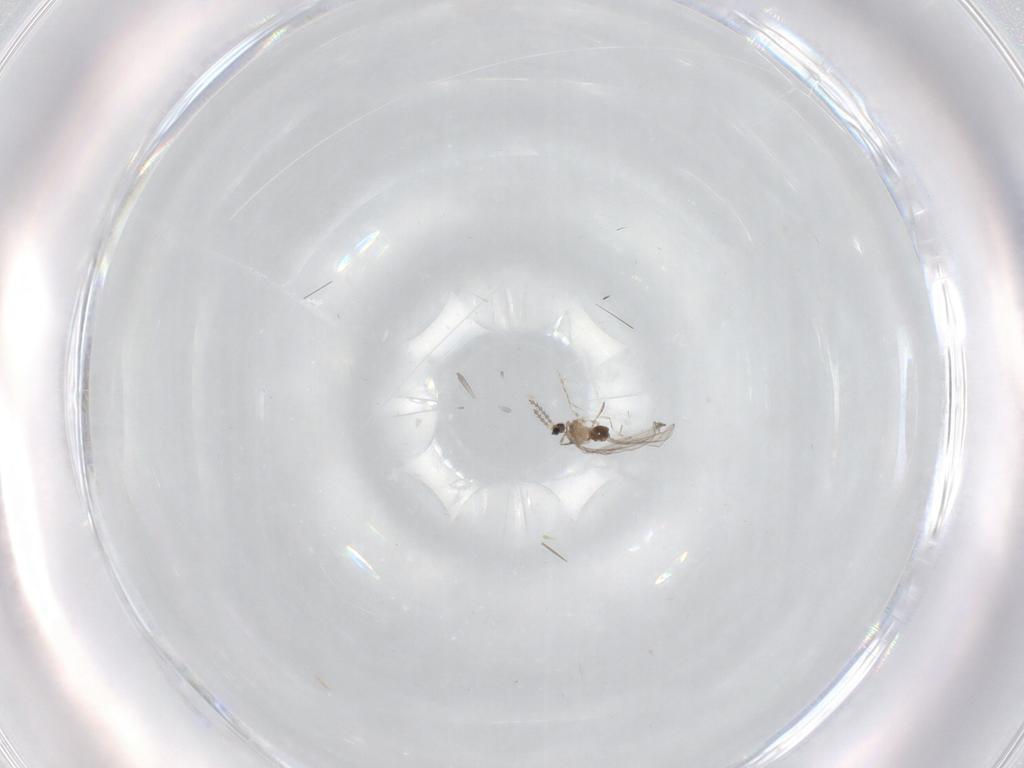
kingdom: Animalia
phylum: Arthropoda
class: Insecta
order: Diptera
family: Cecidomyiidae
